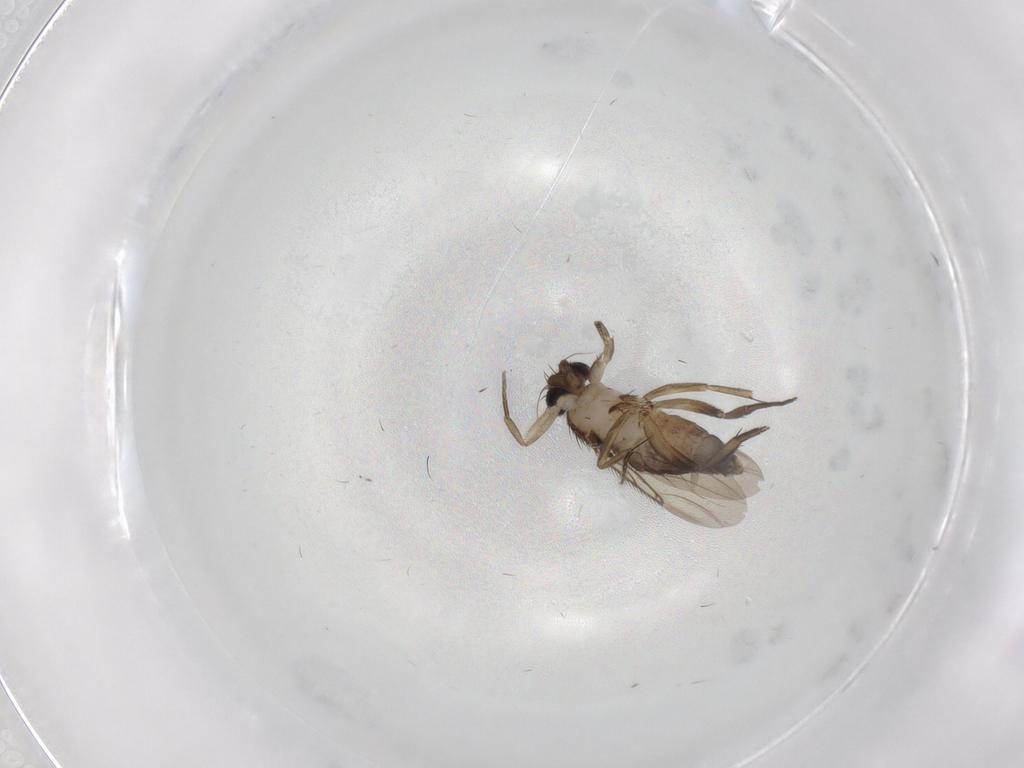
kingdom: Animalia
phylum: Arthropoda
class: Insecta
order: Diptera
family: Phoridae
